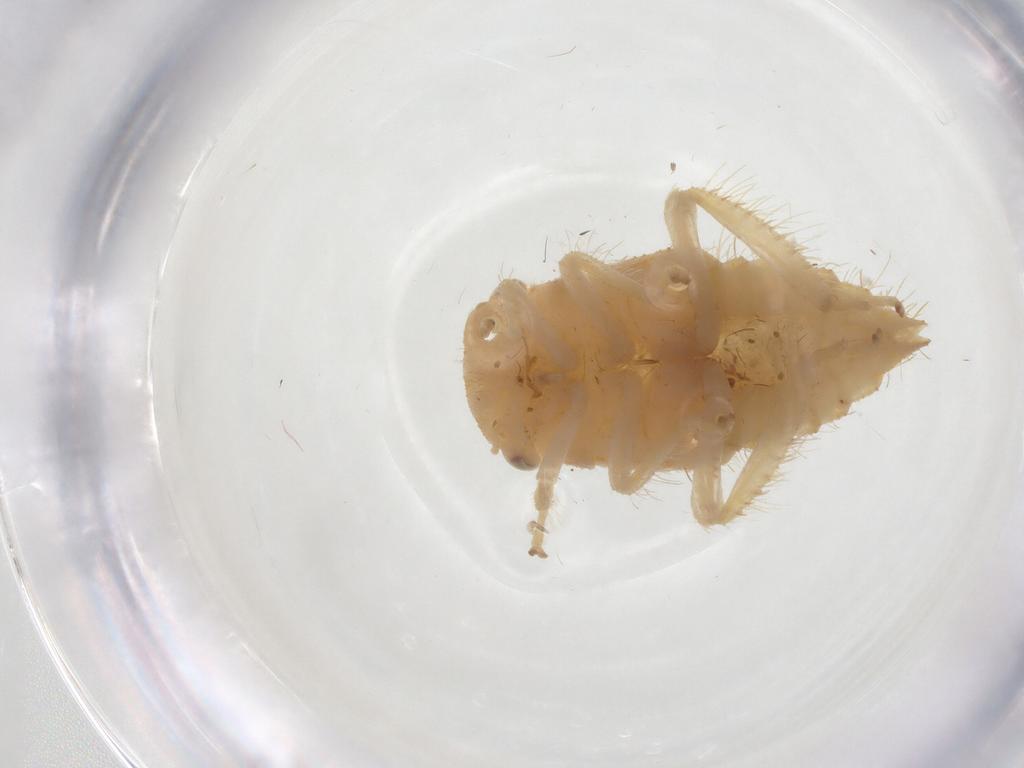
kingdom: Animalia
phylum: Arthropoda
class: Insecta
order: Hemiptera
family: Cicadellidae
